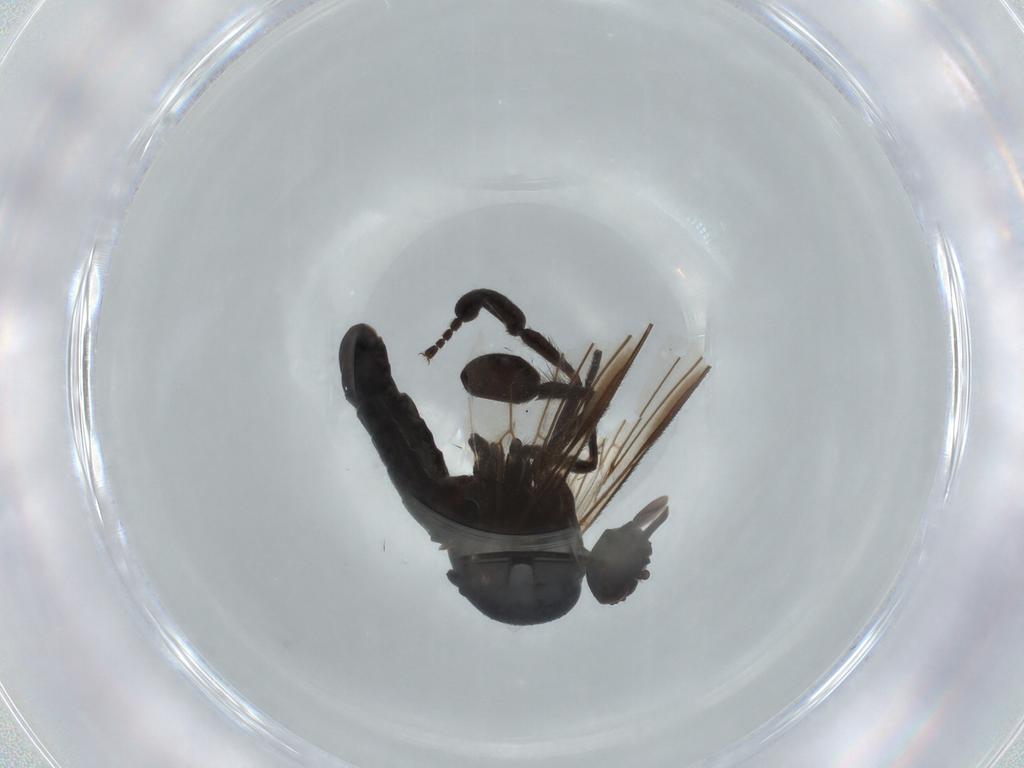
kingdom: Animalia
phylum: Arthropoda
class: Insecta
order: Diptera
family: Empididae
